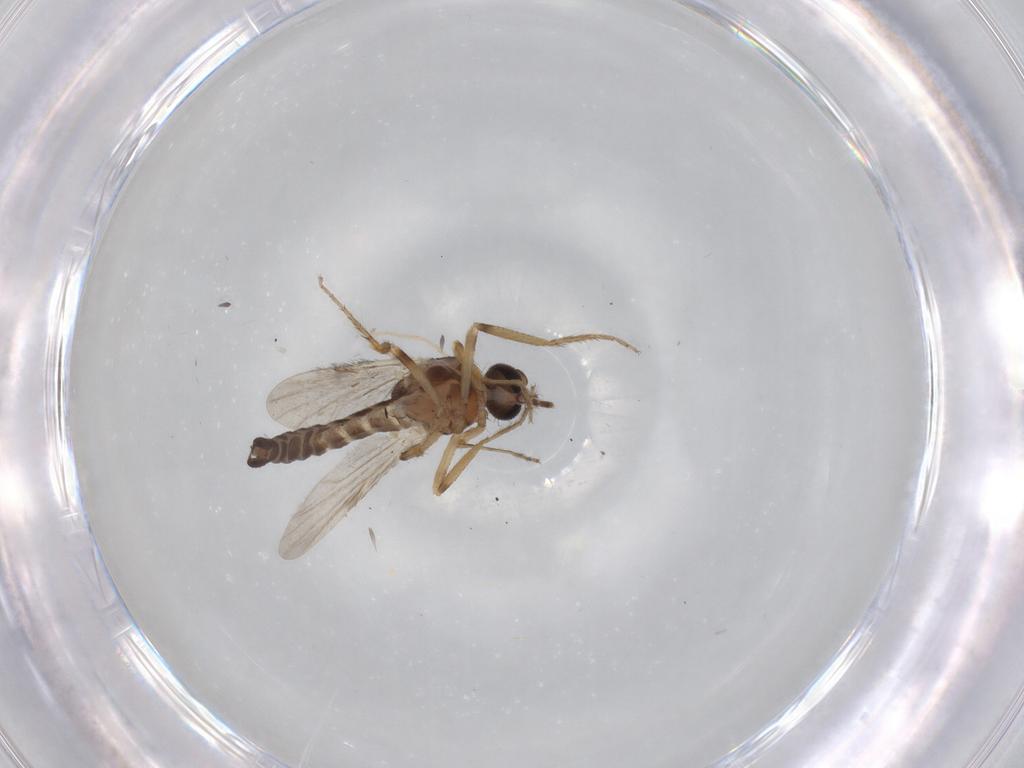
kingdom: Animalia
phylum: Arthropoda
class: Insecta
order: Diptera
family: Ceratopogonidae
